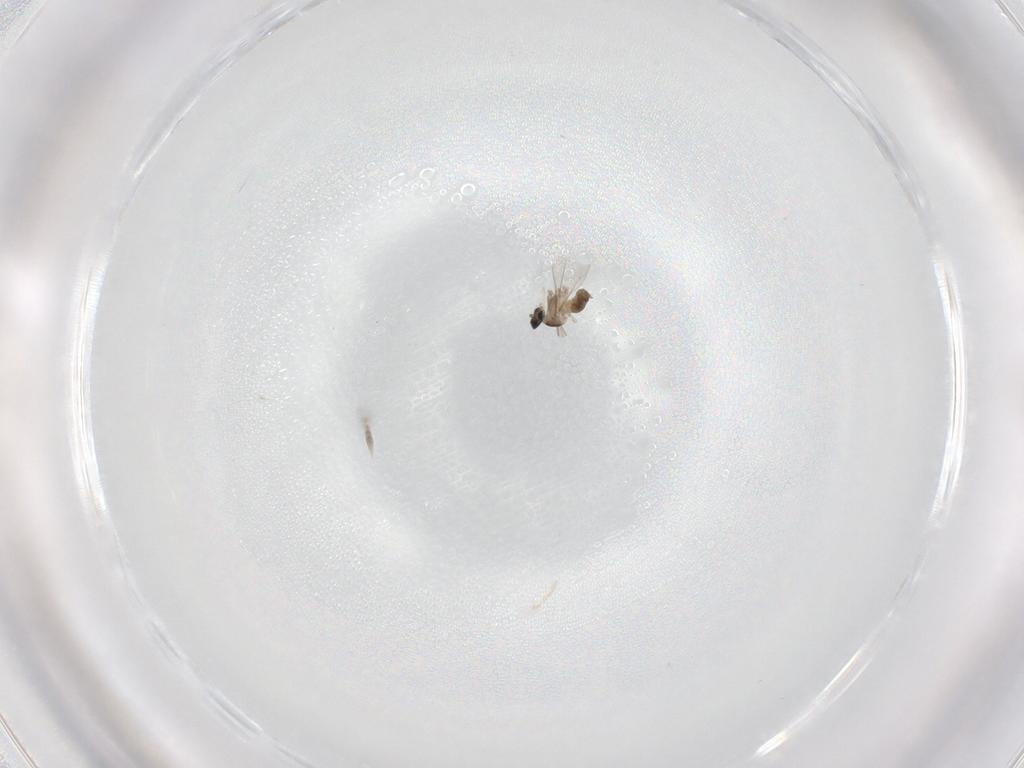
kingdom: Animalia
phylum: Arthropoda
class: Insecta
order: Diptera
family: Cecidomyiidae
